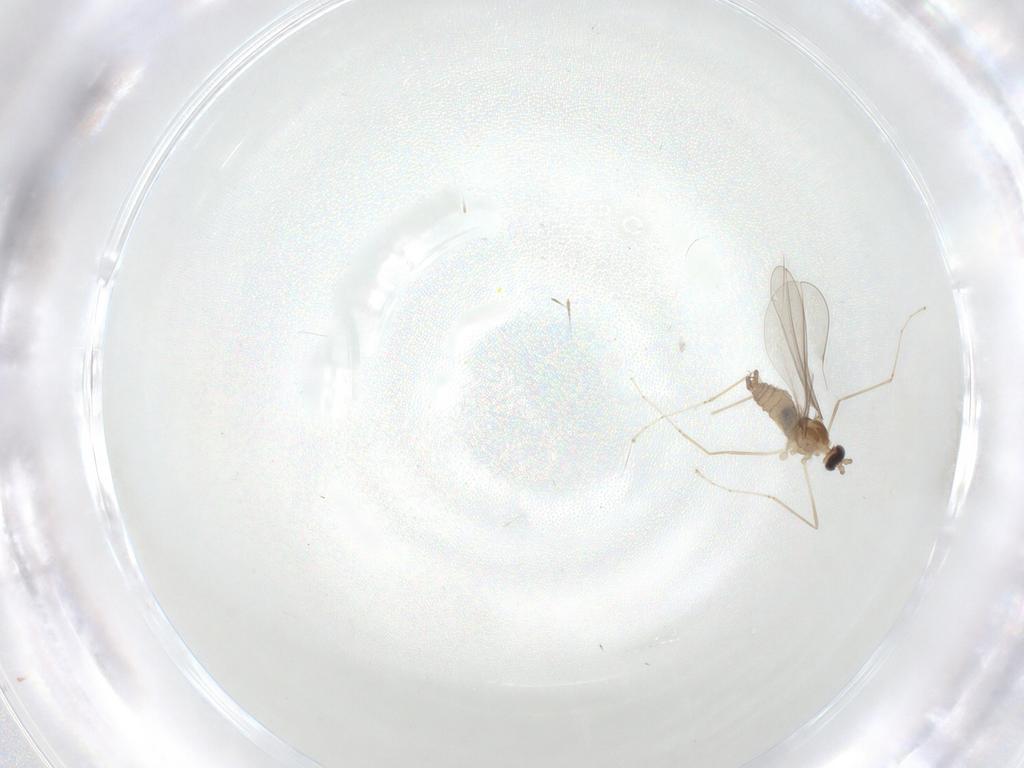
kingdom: Animalia
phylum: Arthropoda
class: Insecta
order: Diptera
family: Cecidomyiidae
